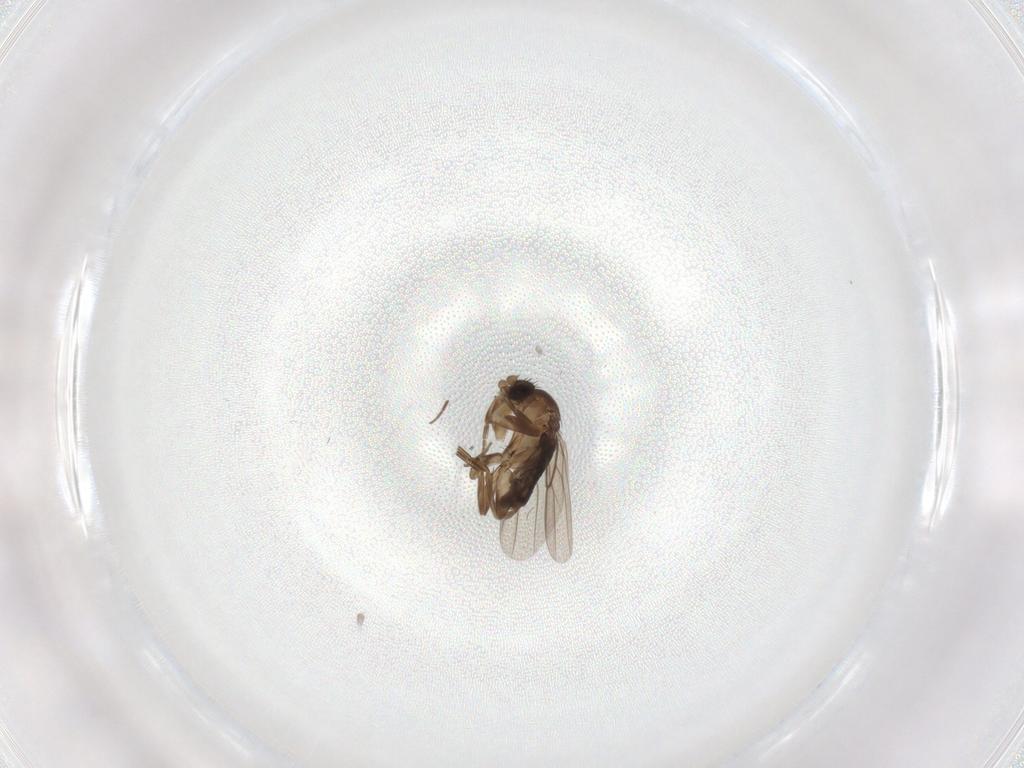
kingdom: Animalia
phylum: Arthropoda
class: Insecta
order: Diptera
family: Phoridae
